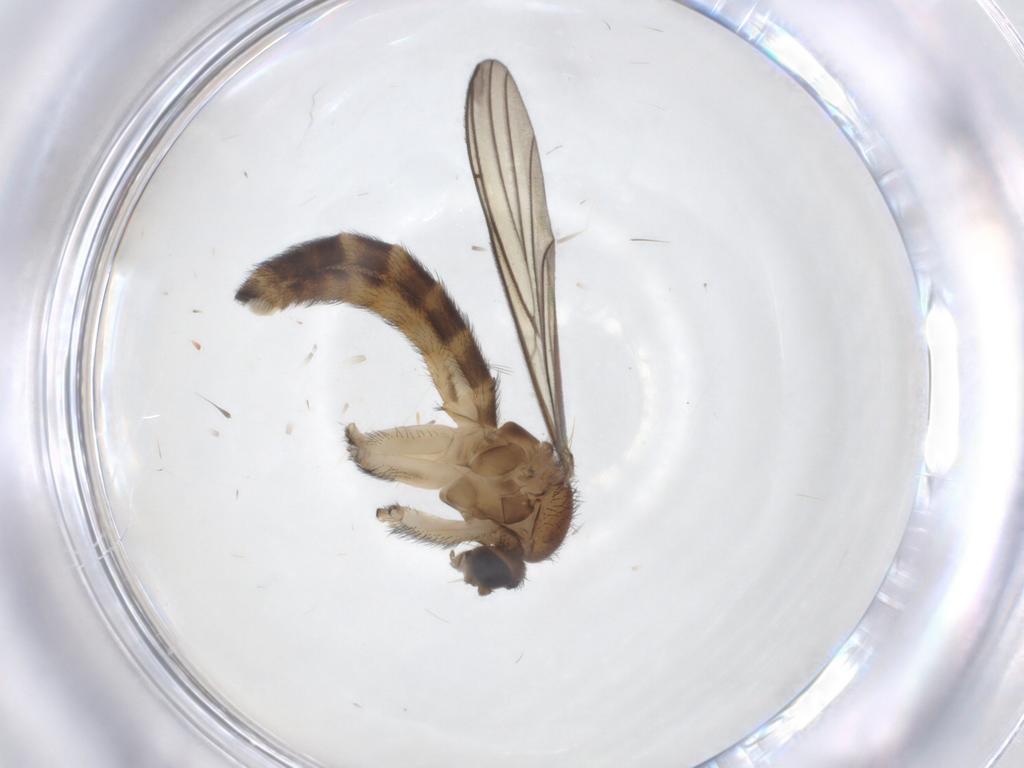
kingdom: Animalia
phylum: Arthropoda
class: Insecta
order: Diptera
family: Keroplatidae
